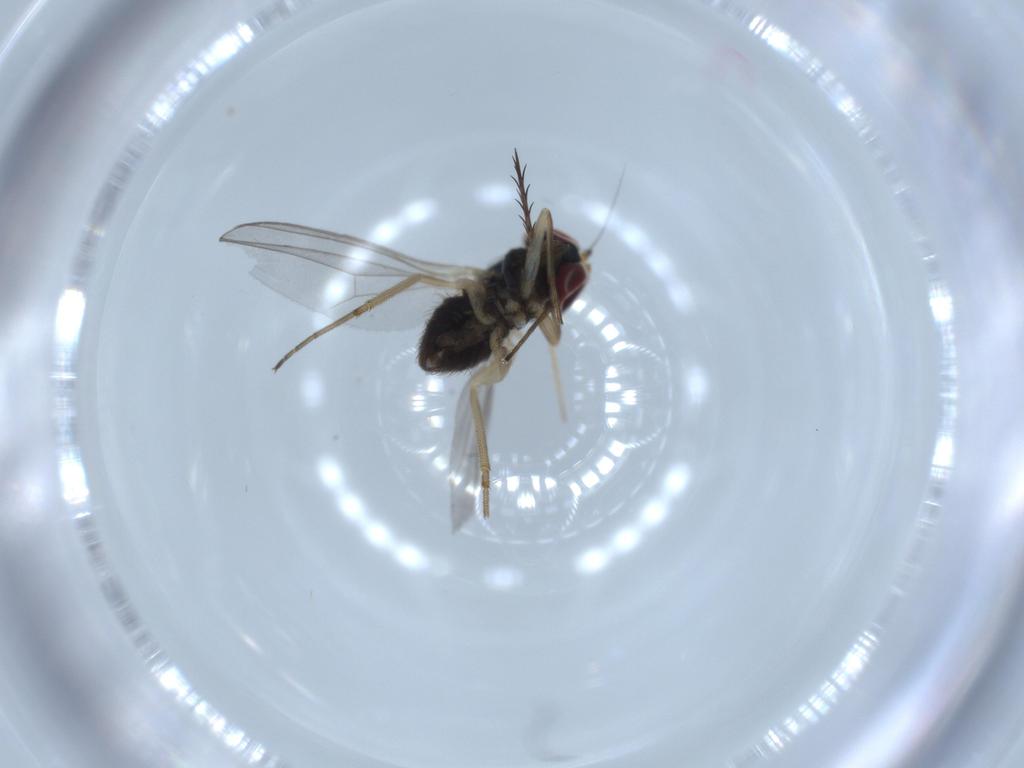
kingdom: Animalia
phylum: Arthropoda
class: Insecta
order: Diptera
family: Dolichopodidae
